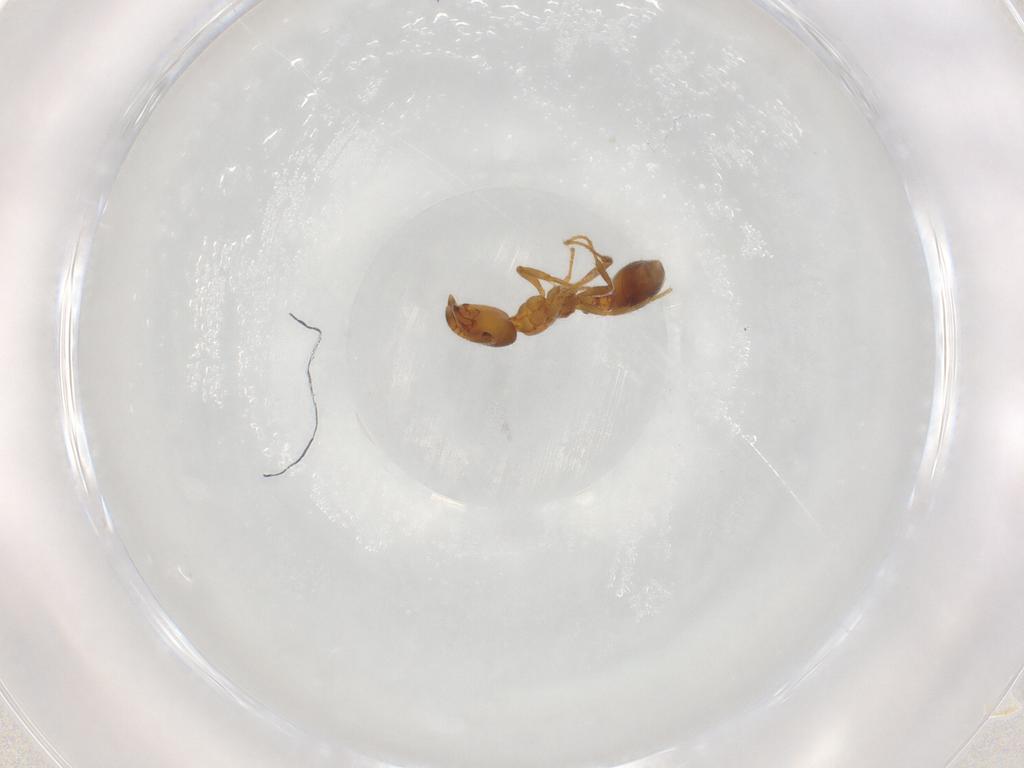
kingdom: Animalia
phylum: Arthropoda
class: Insecta
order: Hymenoptera
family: Formicidae
